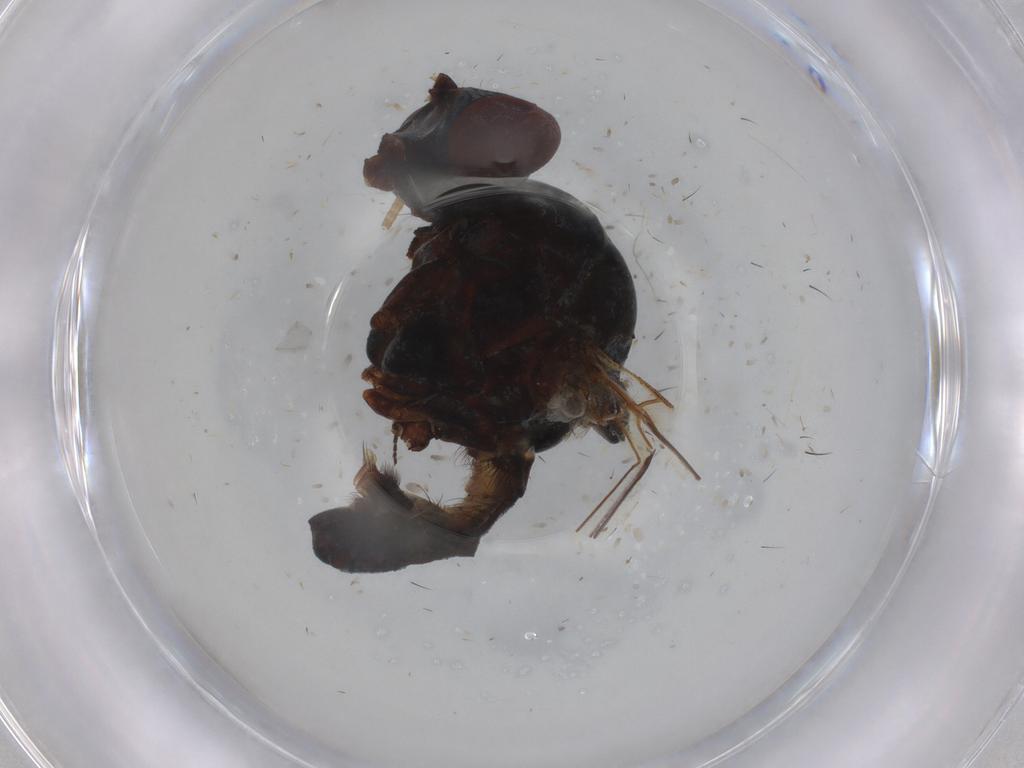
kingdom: Animalia
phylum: Arthropoda
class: Insecta
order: Diptera
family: Anthomyiidae
